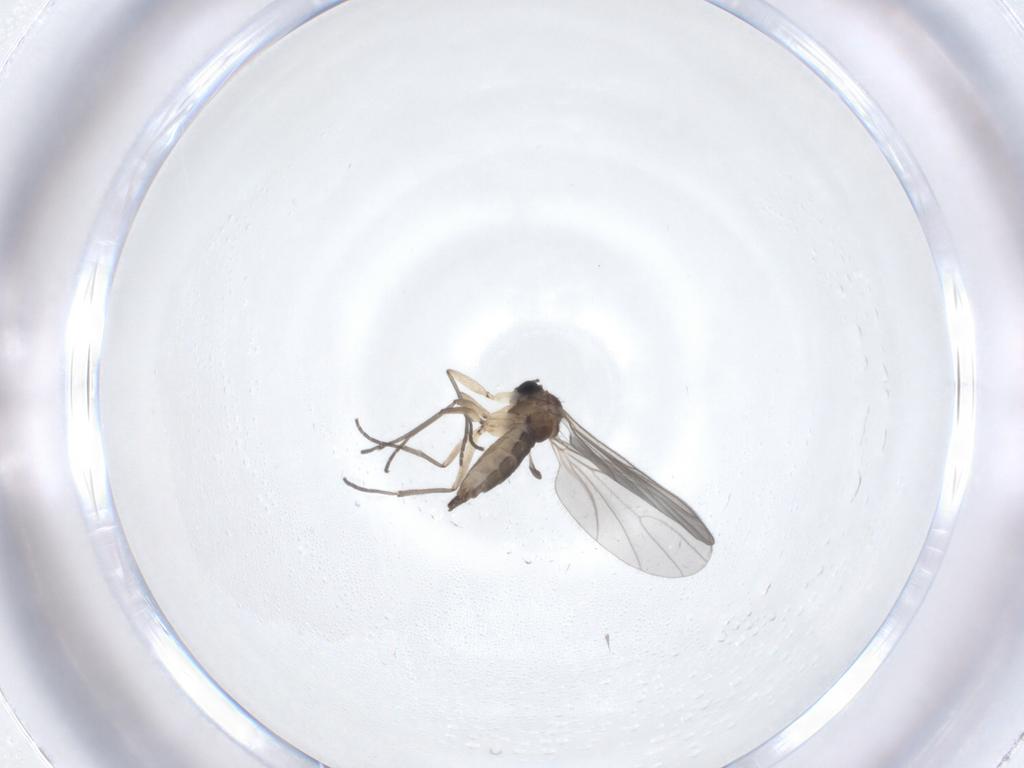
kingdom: Animalia
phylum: Arthropoda
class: Insecta
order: Diptera
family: Sciaridae
